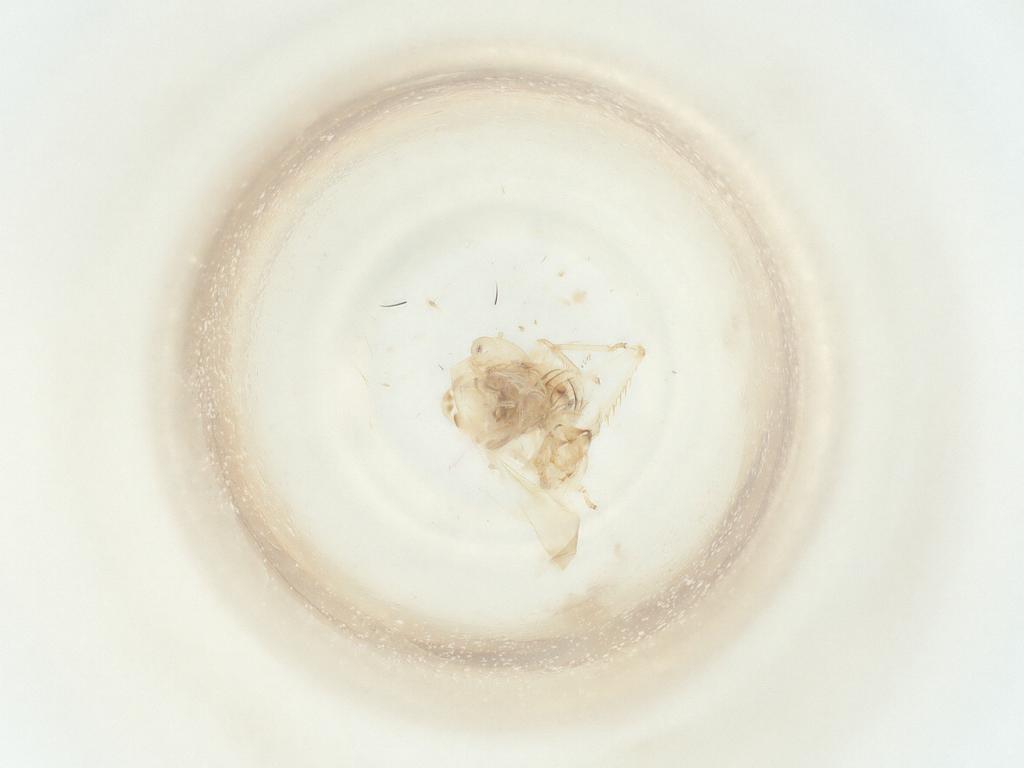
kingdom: Animalia
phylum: Arthropoda
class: Insecta
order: Hemiptera
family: Cicadellidae
